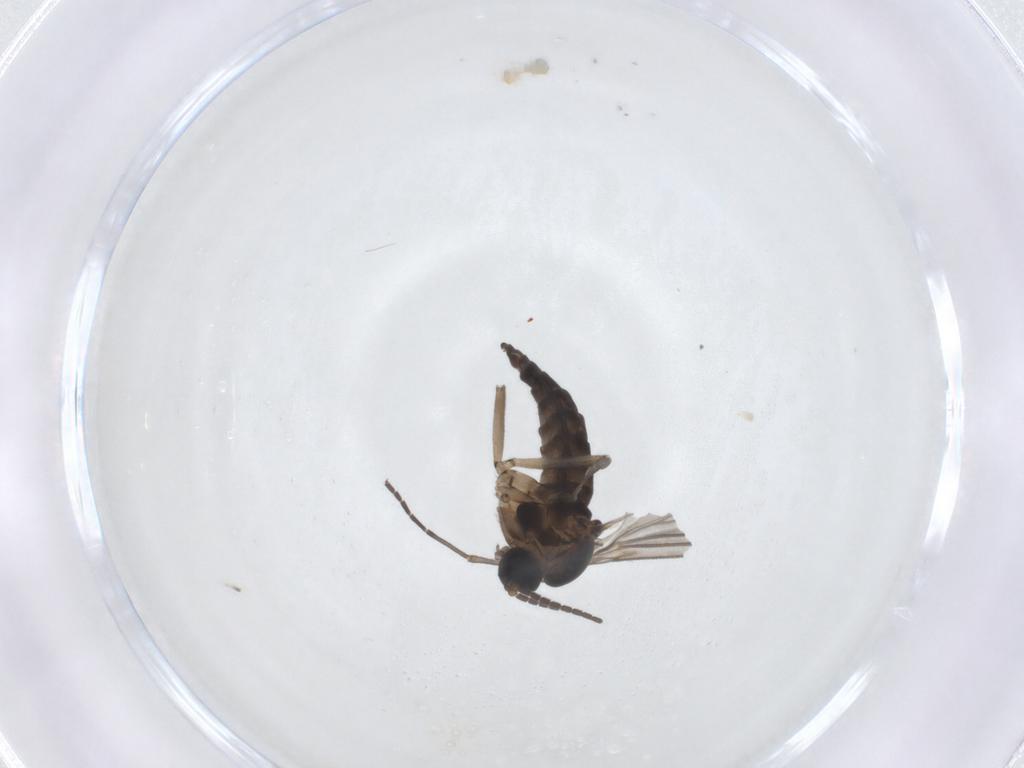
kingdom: Animalia
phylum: Arthropoda
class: Insecta
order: Diptera
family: Sciaridae
